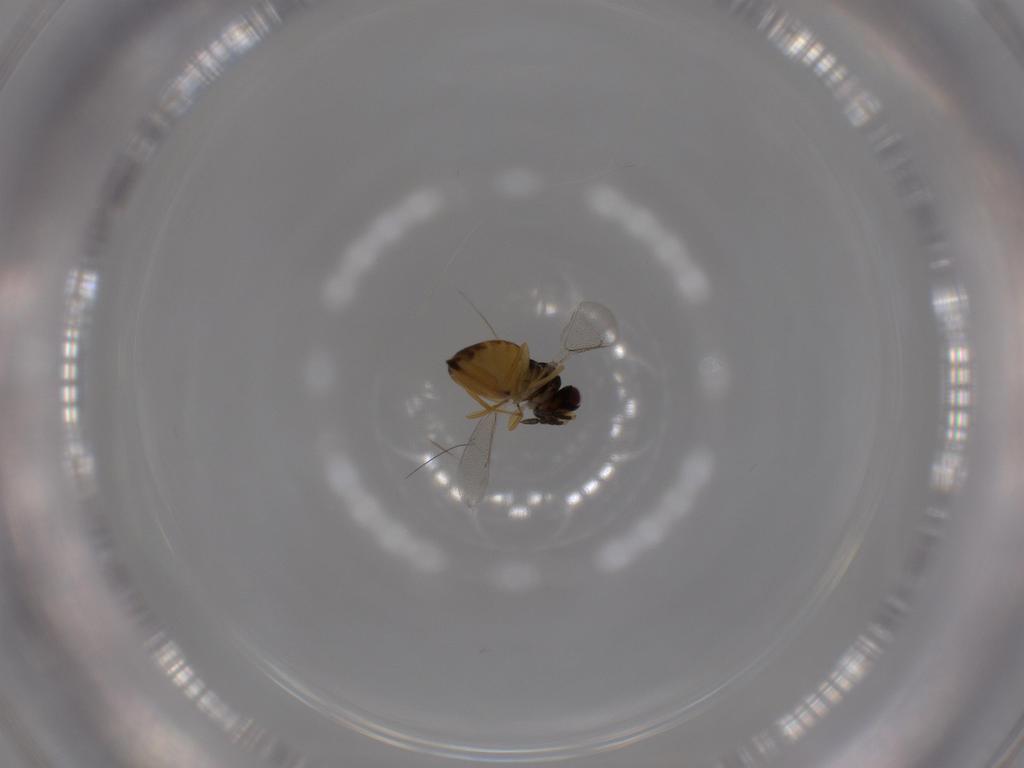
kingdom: Animalia
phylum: Arthropoda
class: Insecta
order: Hymenoptera
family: Eulophidae
